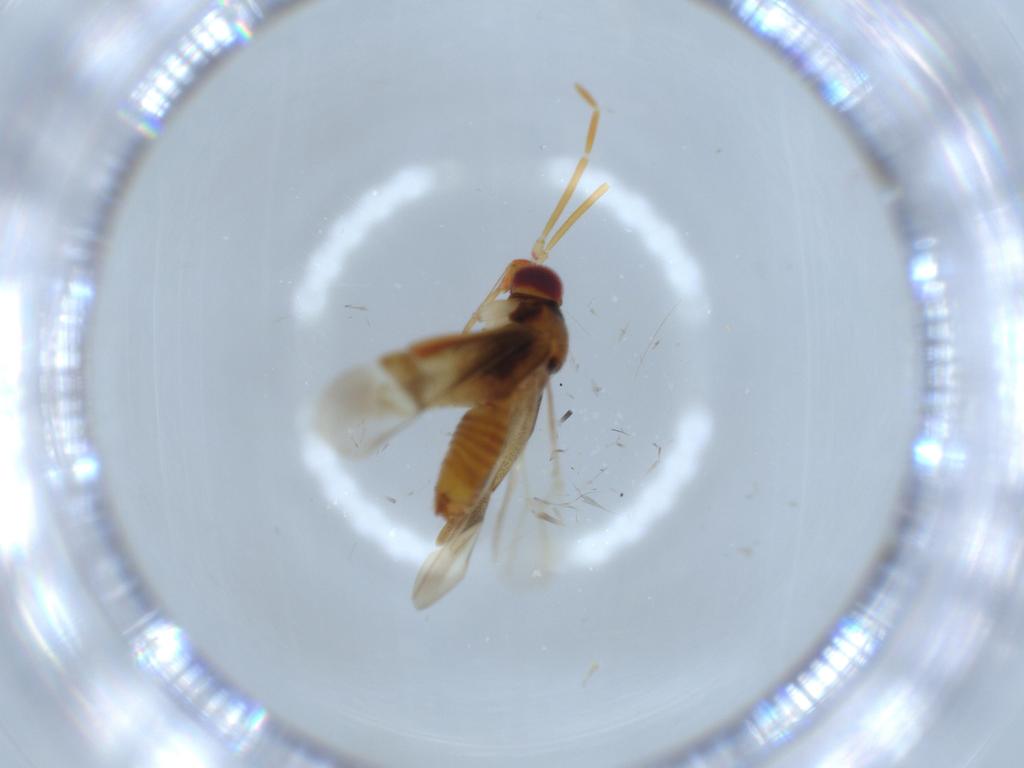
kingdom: Animalia
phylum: Arthropoda
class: Insecta
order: Hemiptera
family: Miridae
